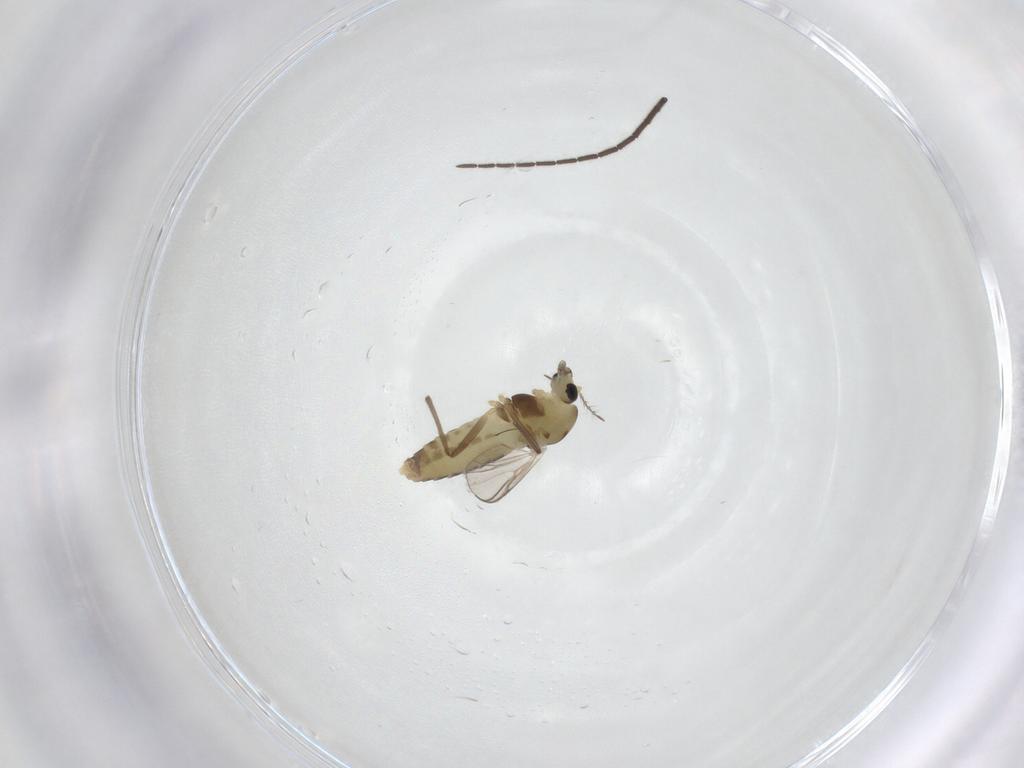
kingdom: Animalia
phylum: Arthropoda
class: Insecta
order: Diptera
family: Chironomidae
